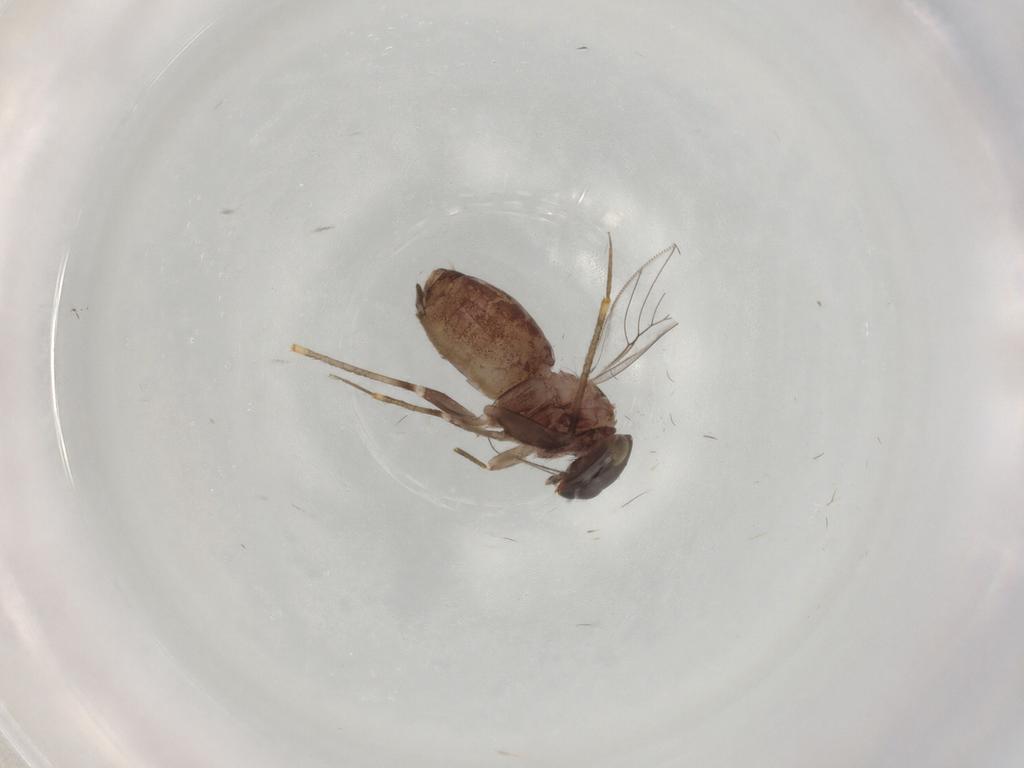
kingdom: Animalia
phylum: Arthropoda
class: Insecta
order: Psocodea
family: Lepidopsocidae
